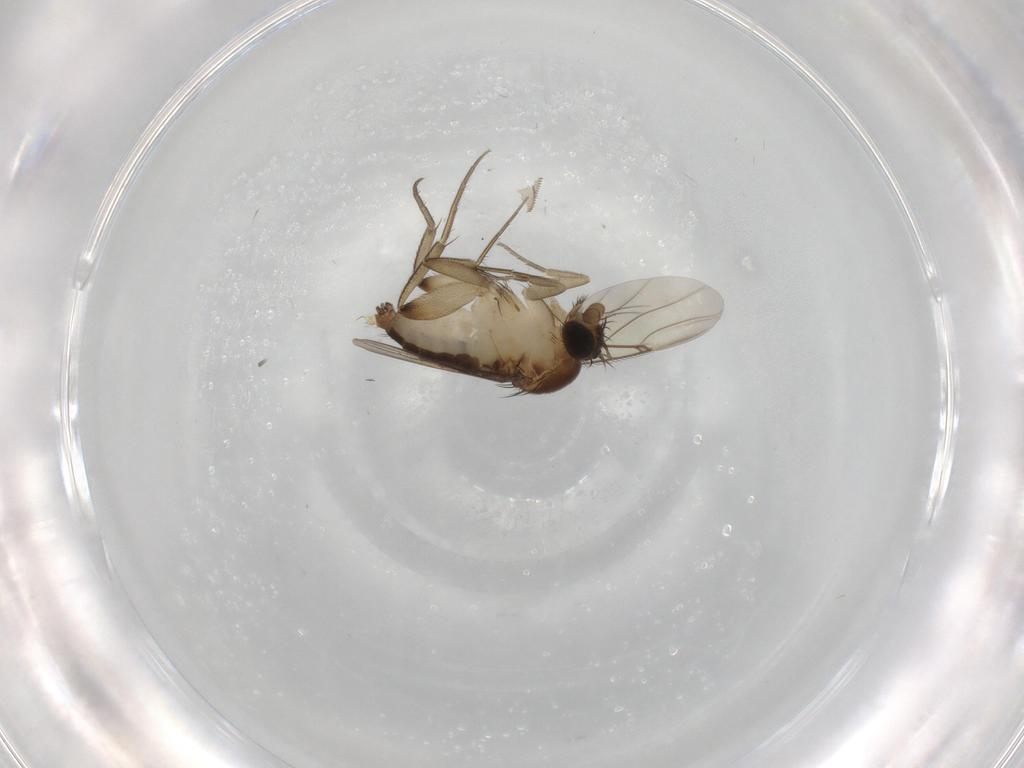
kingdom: Animalia
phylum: Arthropoda
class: Insecta
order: Diptera
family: Phoridae
